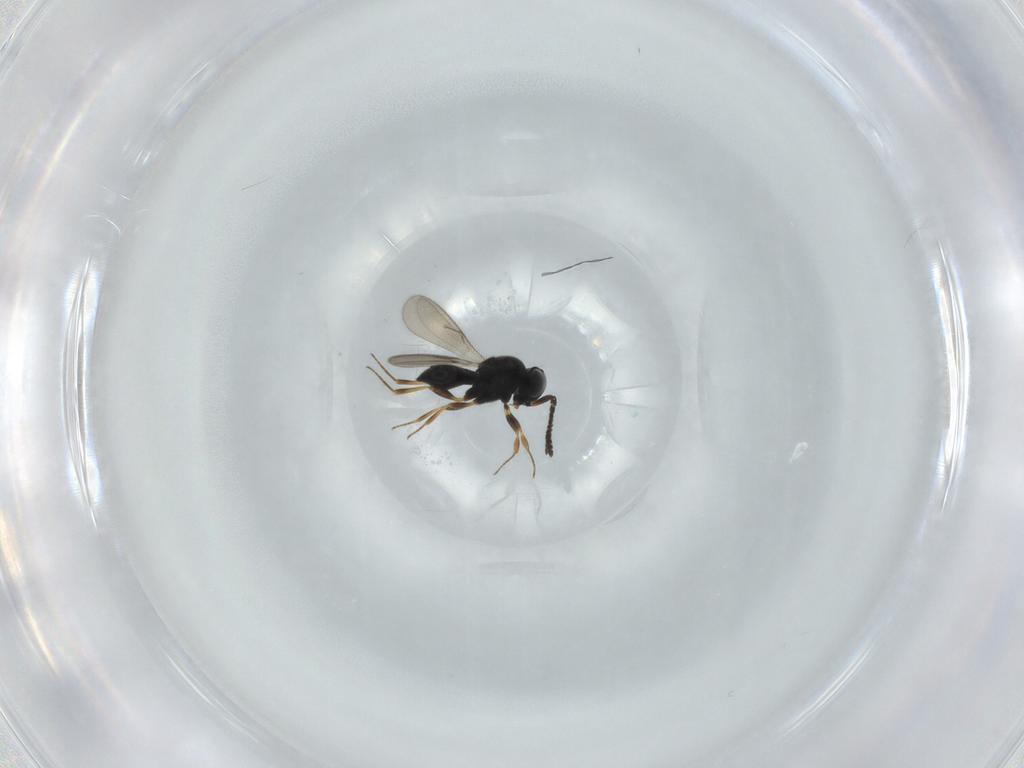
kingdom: Animalia
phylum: Arthropoda
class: Insecta
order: Hymenoptera
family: Scelionidae
